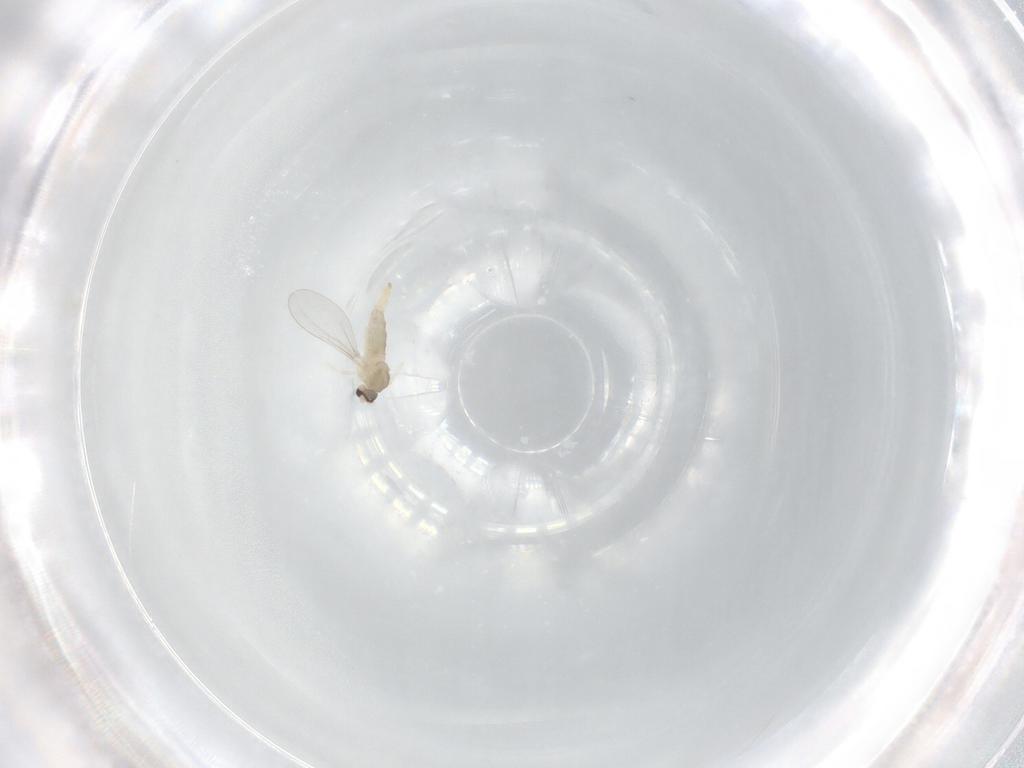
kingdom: Animalia
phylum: Arthropoda
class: Insecta
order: Diptera
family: Cecidomyiidae
